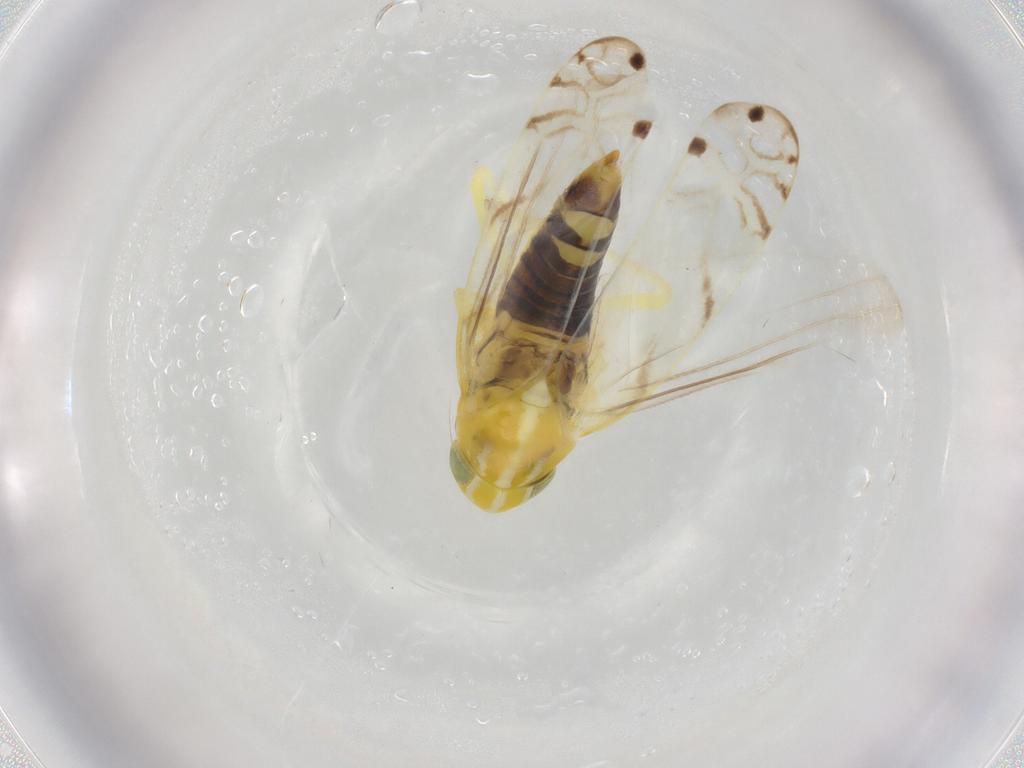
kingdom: Animalia
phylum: Arthropoda
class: Insecta
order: Hemiptera
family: Cicadellidae
